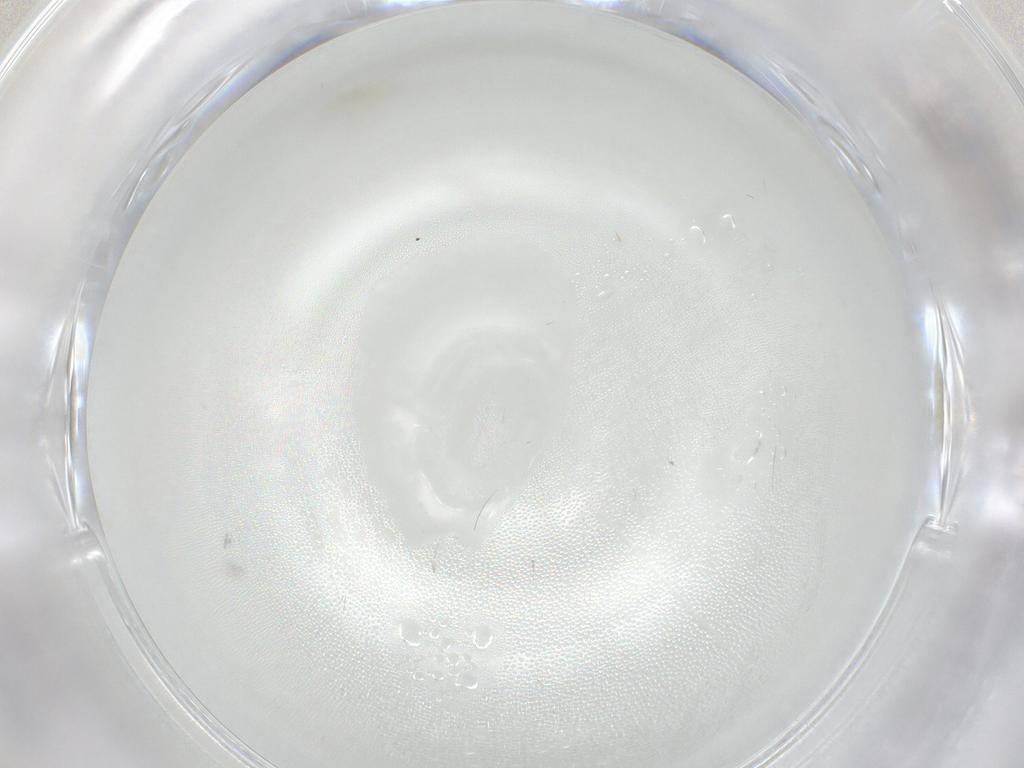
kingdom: Animalia
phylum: Arthropoda
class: Insecta
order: Diptera
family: Cecidomyiidae
